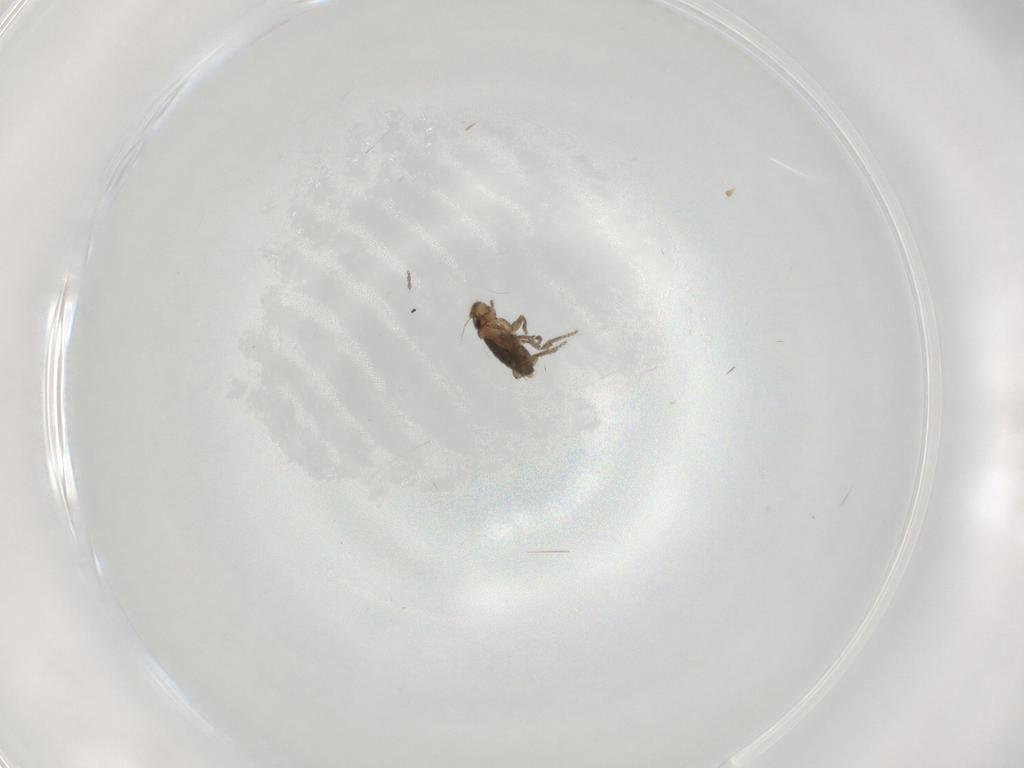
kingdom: Animalia
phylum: Arthropoda
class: Insecta
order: Diptera
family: Phoridae
